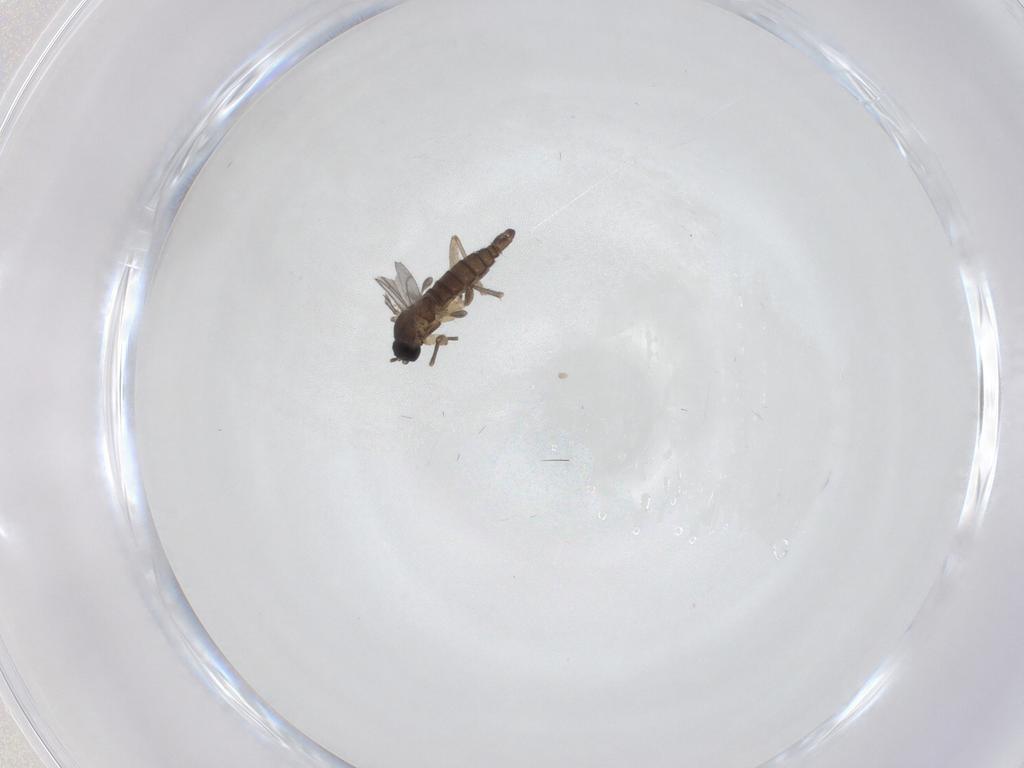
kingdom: Animalia
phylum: Arthropoda
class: Insecta
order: Diptera
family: Sciaridae
